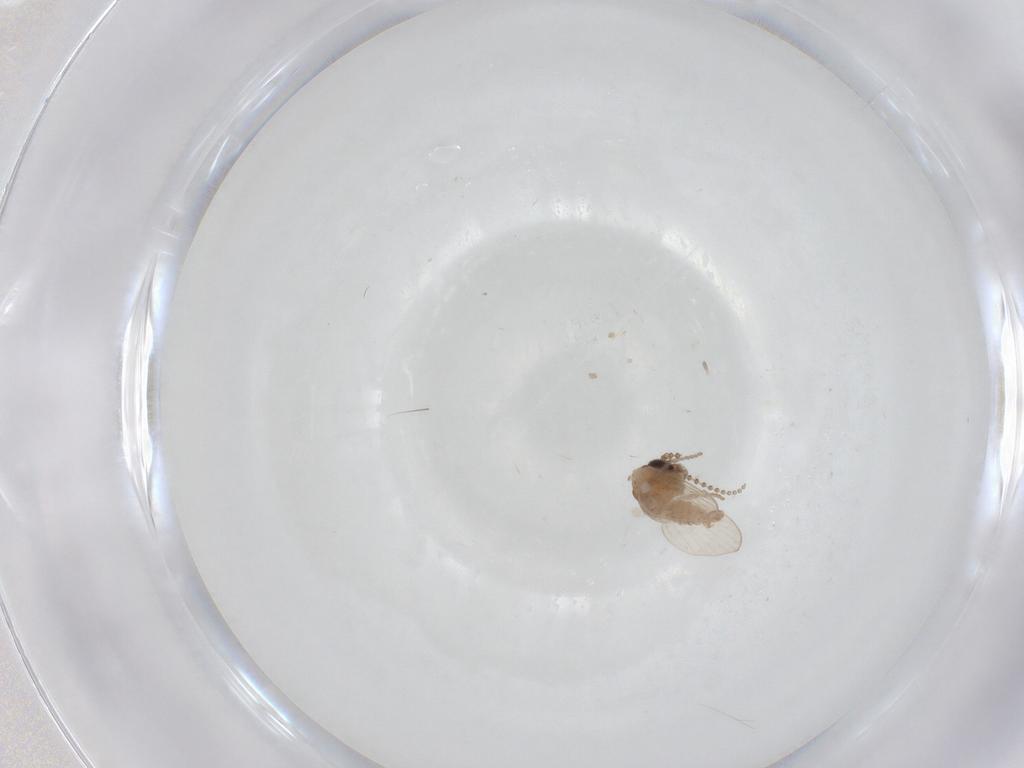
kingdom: Animalia
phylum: Arthropoda
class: Insecta
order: Diptera
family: Psychodidae
